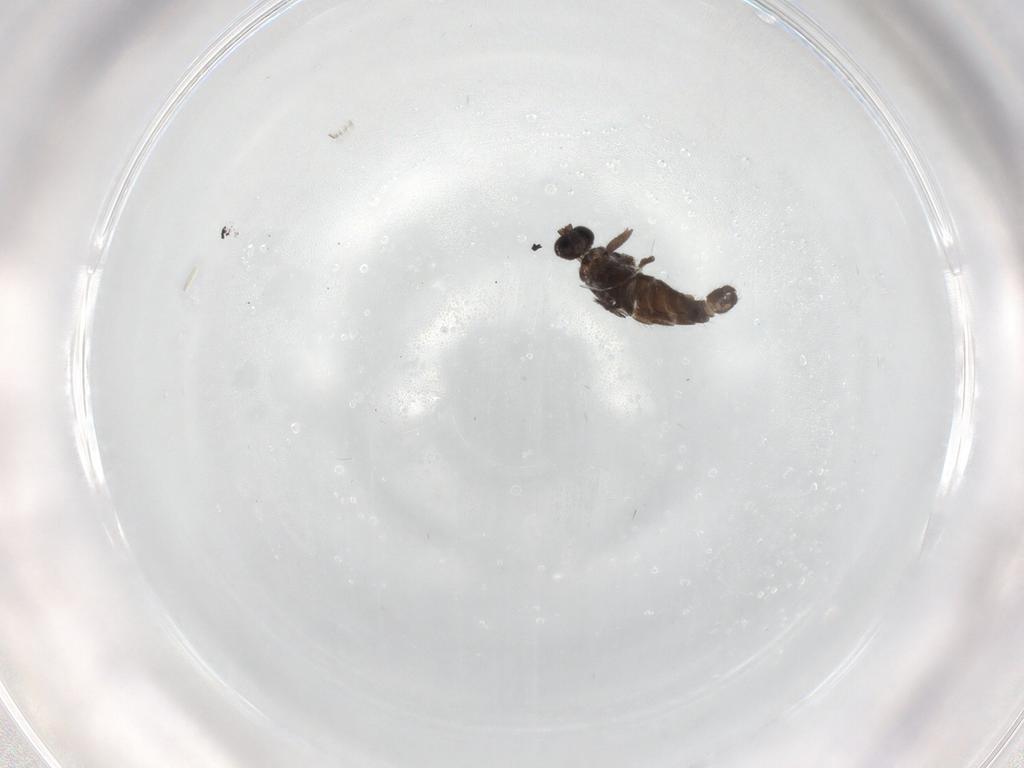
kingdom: Animalia
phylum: Arthropoda
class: Insecta
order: Diptera
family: Ceratopogonidae
